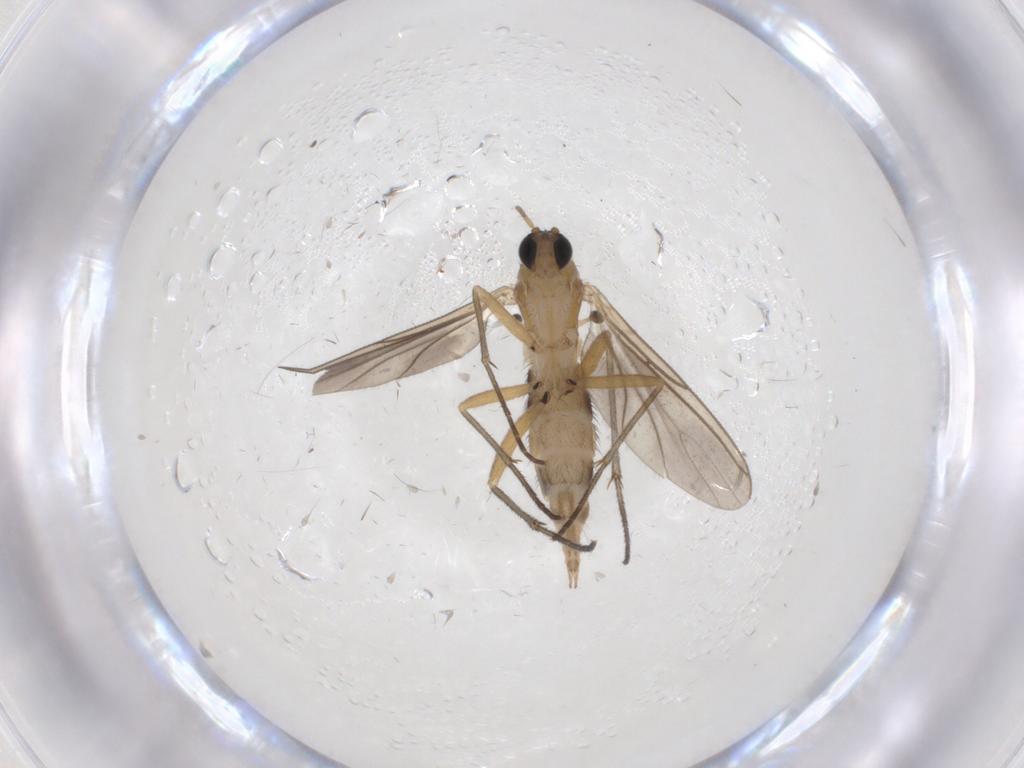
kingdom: Animalia
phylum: Arthropoda
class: Insecta
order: Diptera
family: Sciaridae
